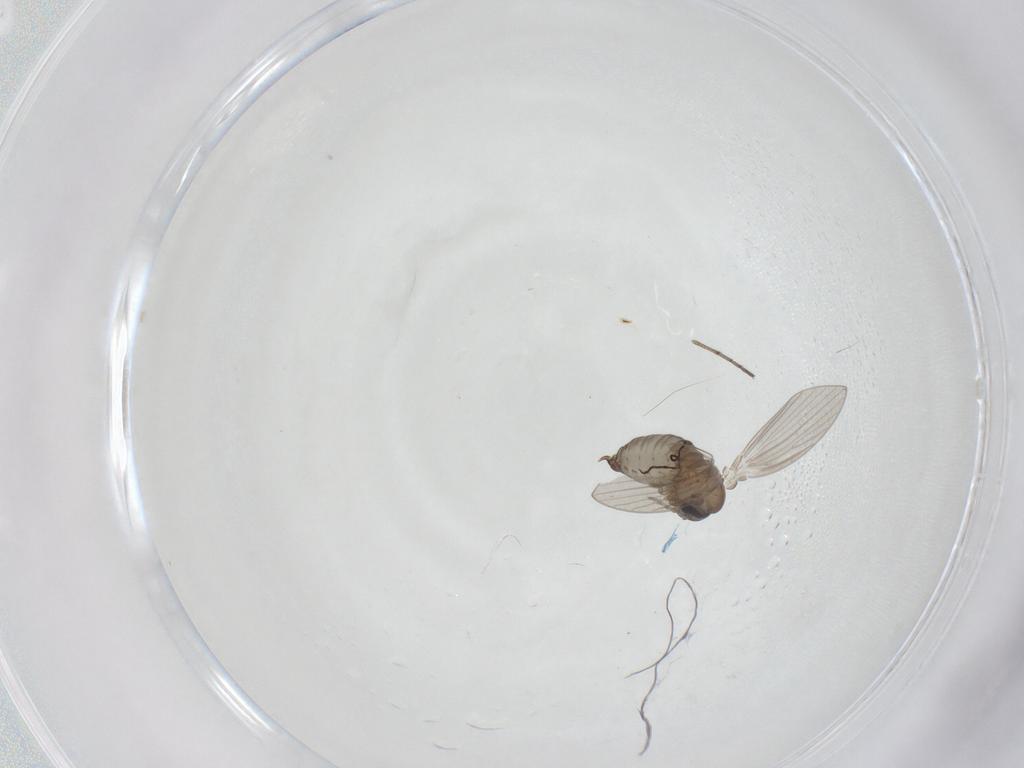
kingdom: Animalia
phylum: Arthropoda
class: Insecta
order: Diptera
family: Psychodidae
